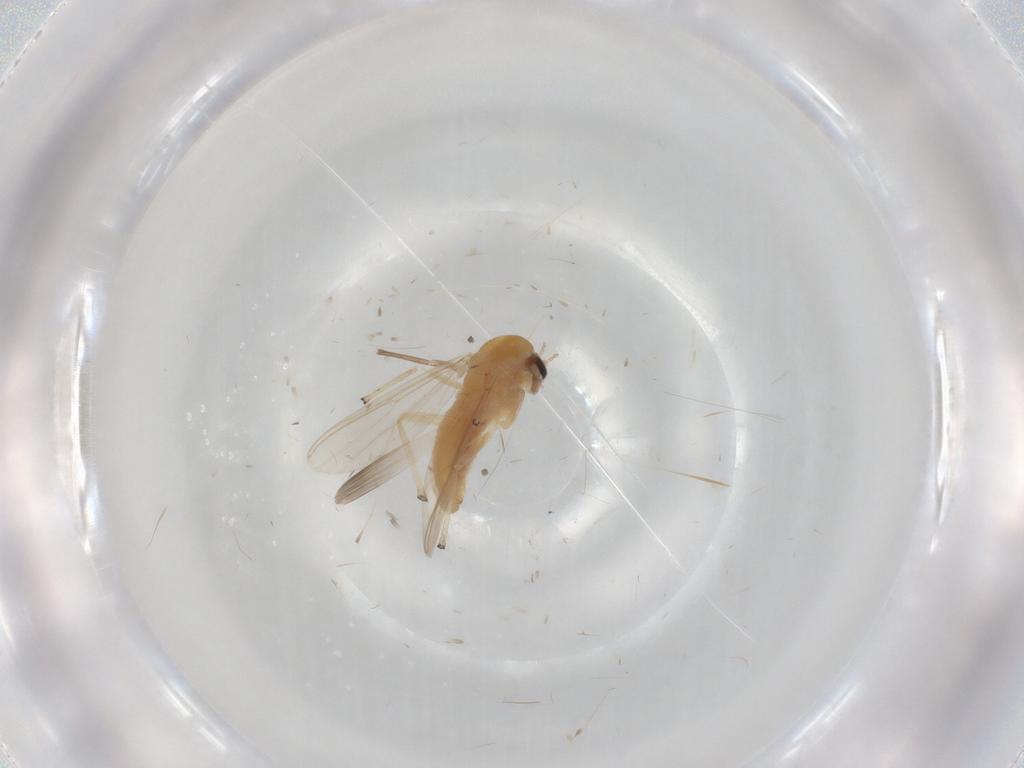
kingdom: Animalia
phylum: Arthropoda
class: Insecta
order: Diptera
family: Chironomidae
